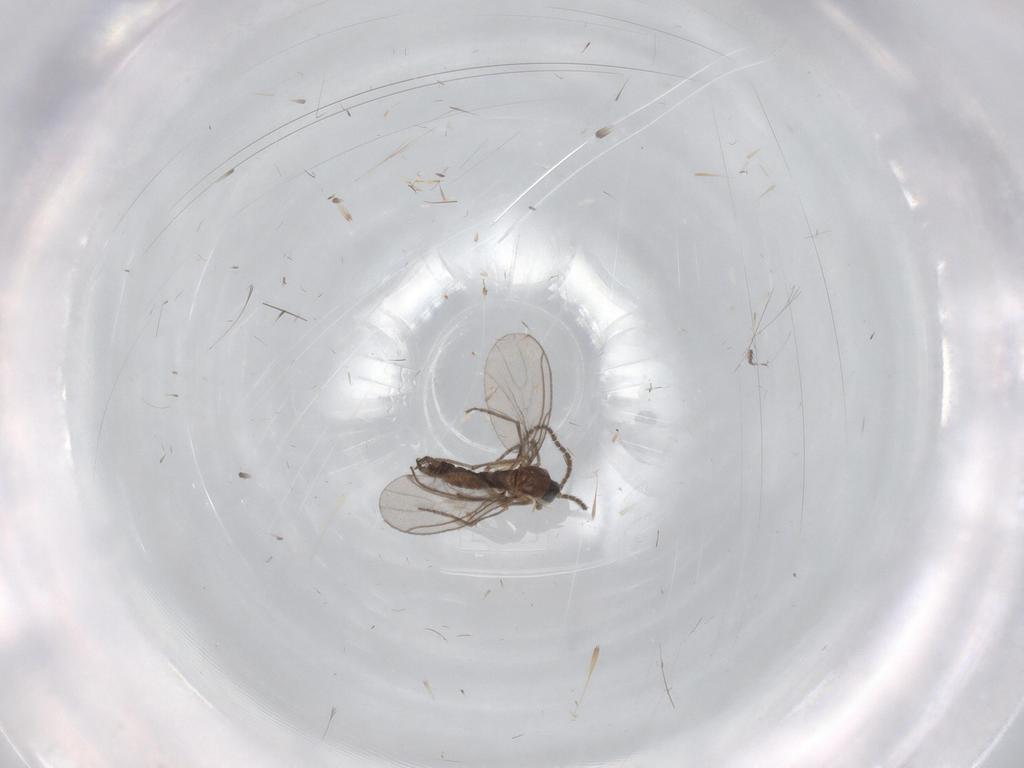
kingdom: Animalia
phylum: Arthropoda
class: Insecta
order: Diptera
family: Sciaridae
